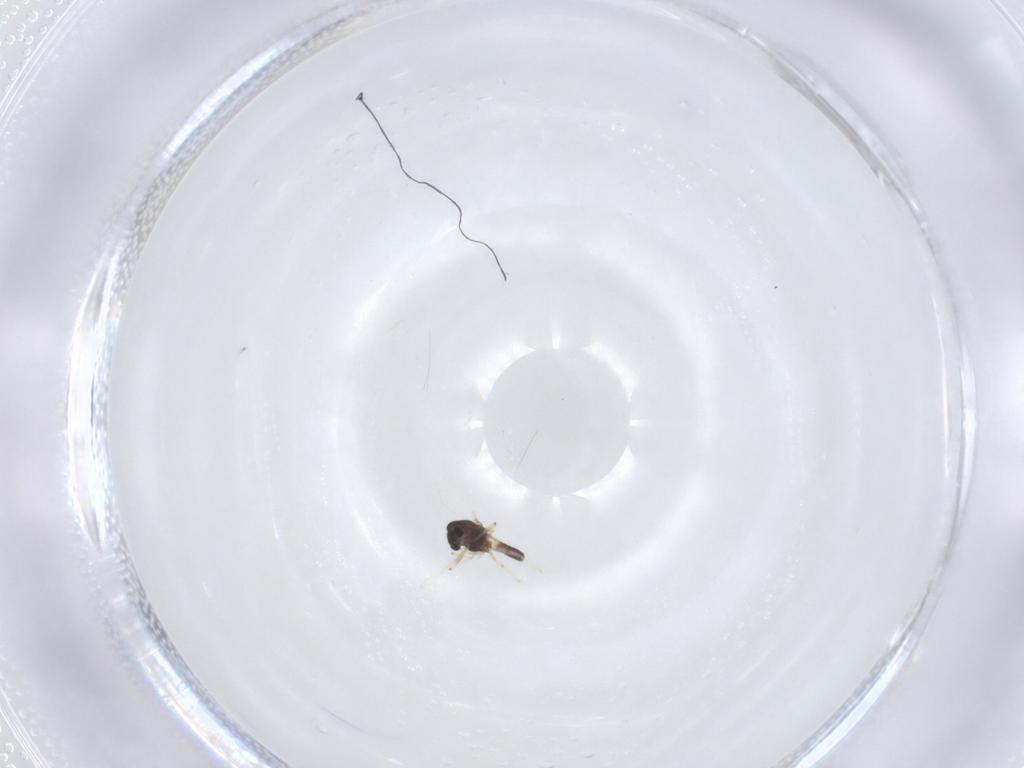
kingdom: Animalia
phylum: Arthropoda
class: Insecta
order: Diptera
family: Chironomidae
